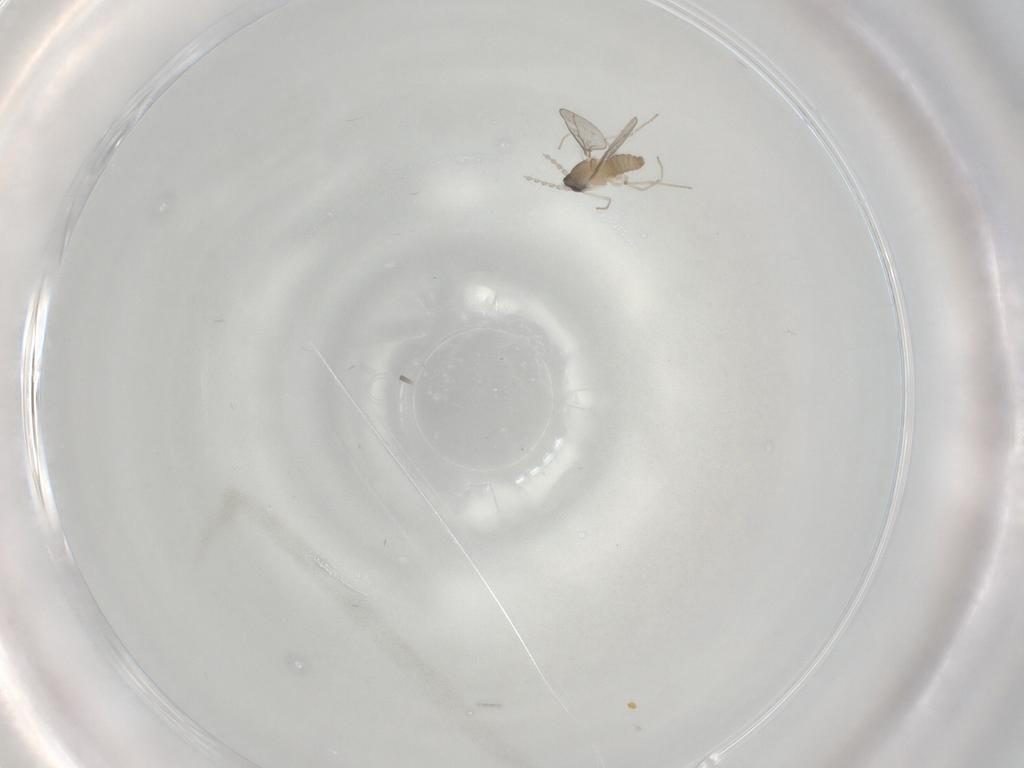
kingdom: Animalia
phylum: Arthropoda
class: Insecta
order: Diptera
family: Cecidomyiidae
